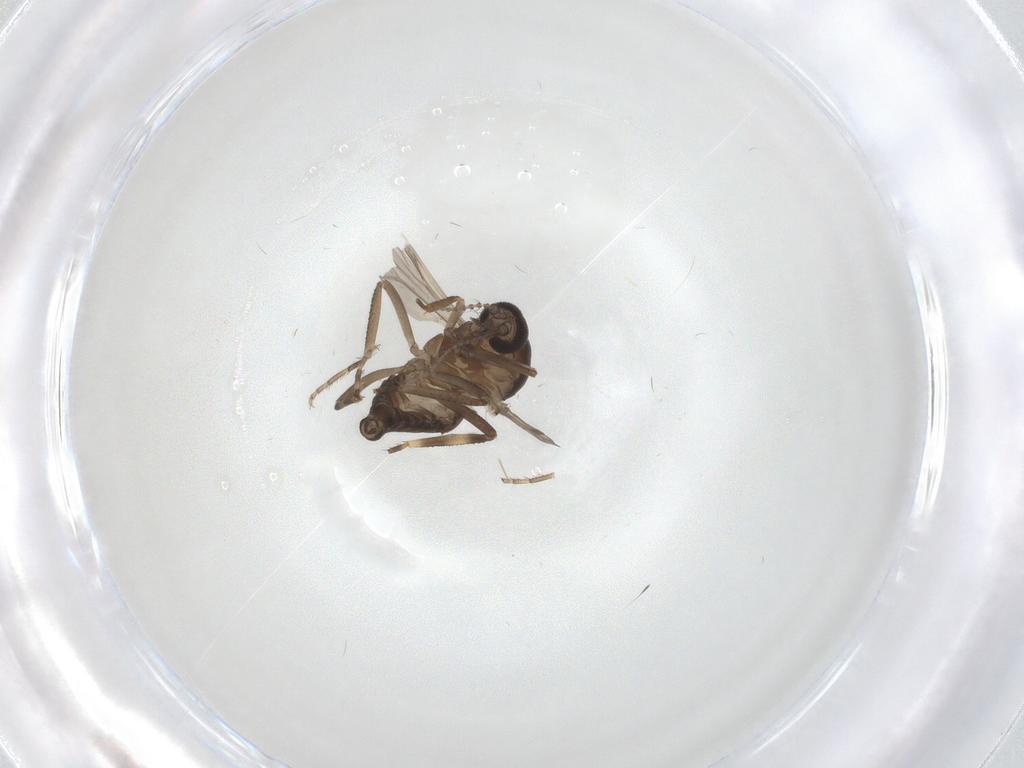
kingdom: Animalia
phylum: Arthropoda
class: Insecta
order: Diptera
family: Ceratopogonidae
